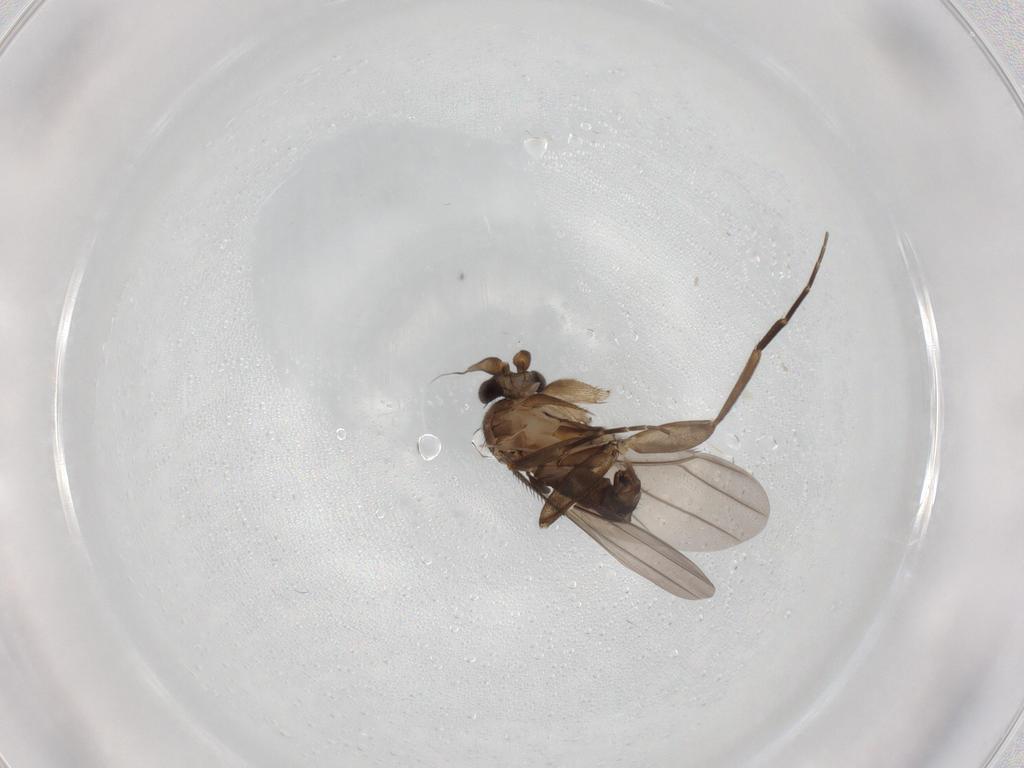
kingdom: Animalia
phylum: Arthropoda
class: Insecta
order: Diptera
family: Phoridae
